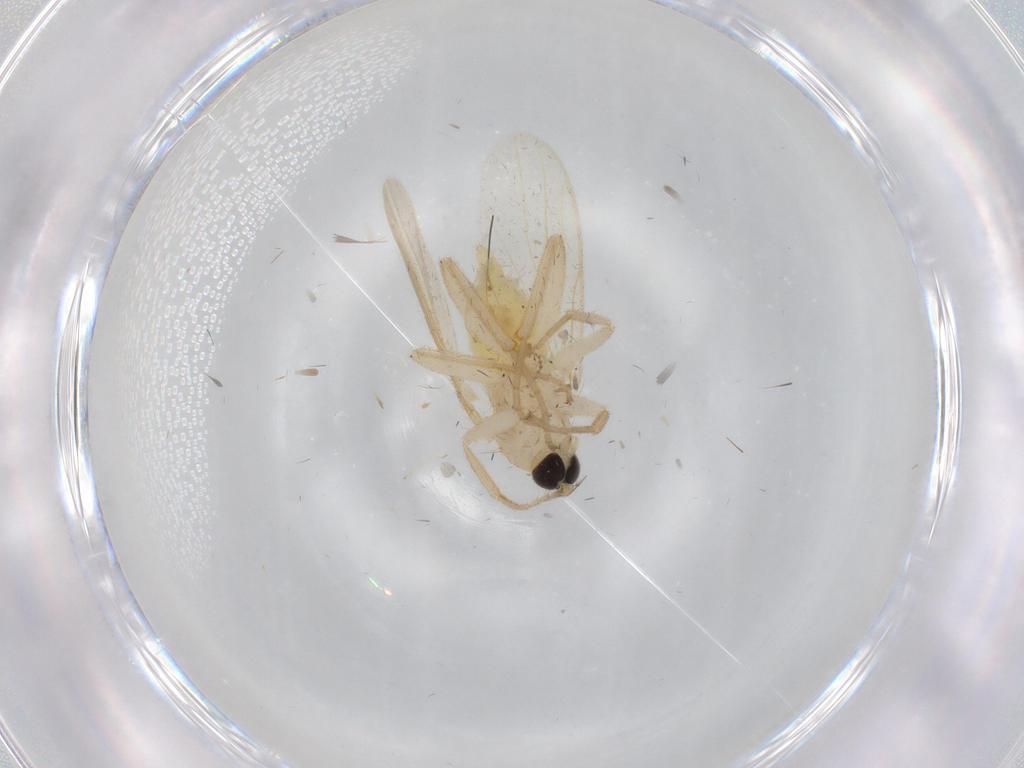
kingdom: Animalia
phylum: Arthropoda
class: Insecta
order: Diptera
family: Hybotidae
